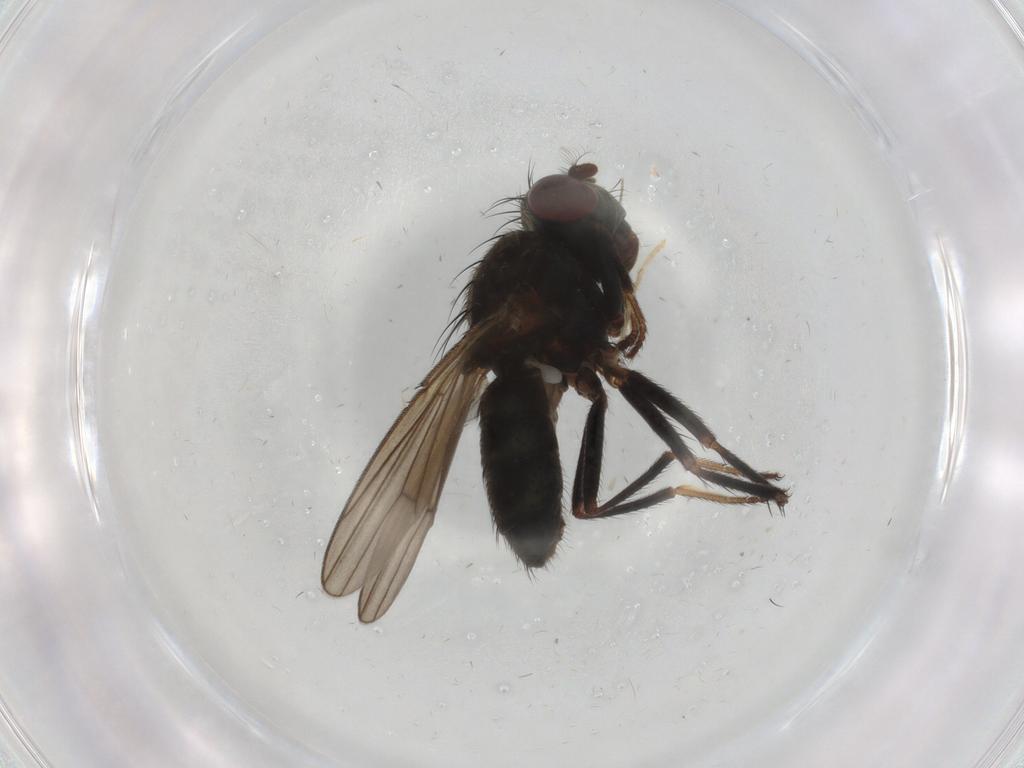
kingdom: Animalia
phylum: Arthropoda
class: Insecta
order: Diptera
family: Ephydridae
